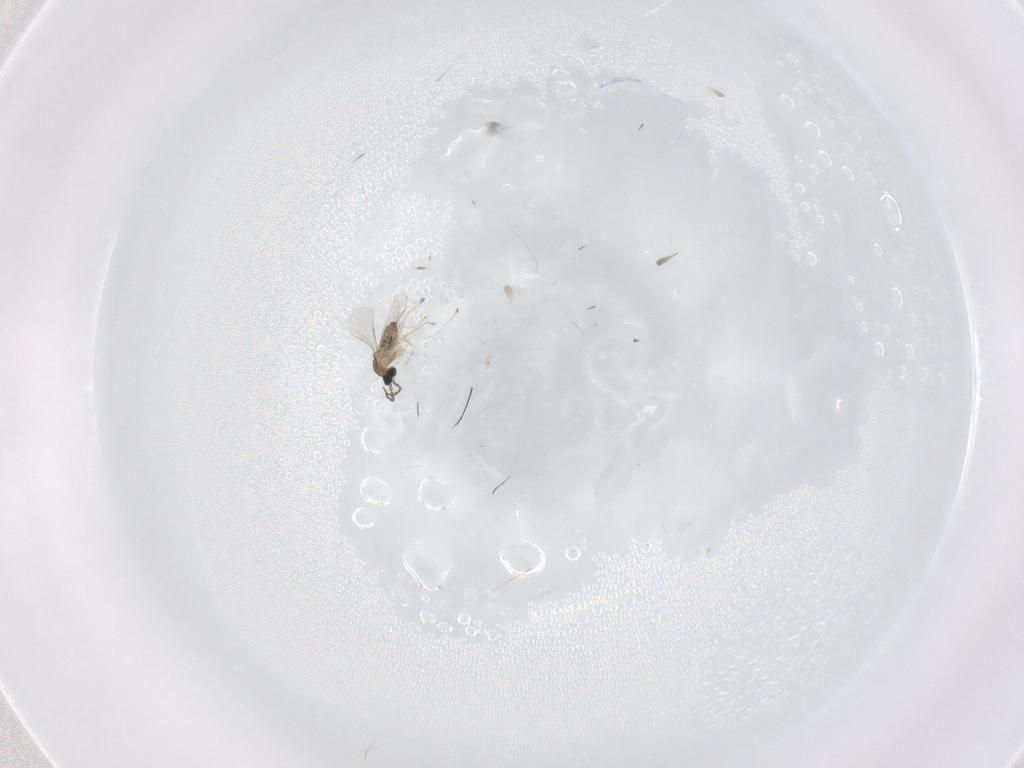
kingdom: Animalia
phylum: Arthropoda
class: Insecta
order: Diptera
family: Cecidomyiidae
